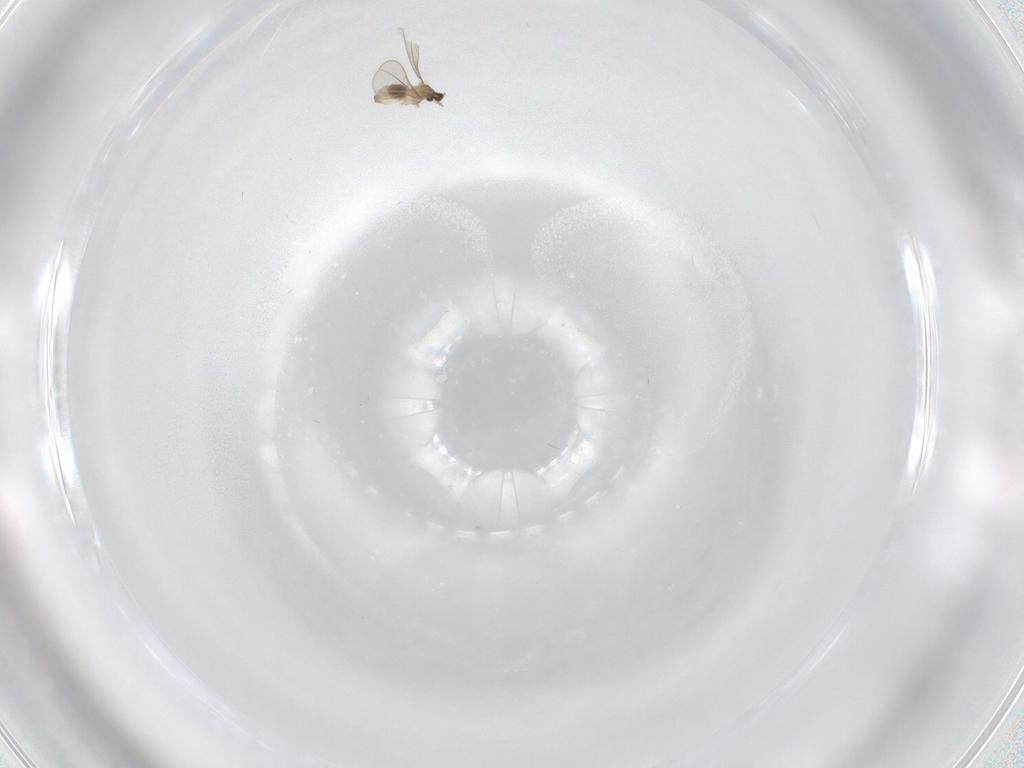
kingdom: Animalia
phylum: Arthropoda
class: Insecta
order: Diptera
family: Cecidomyiidae
